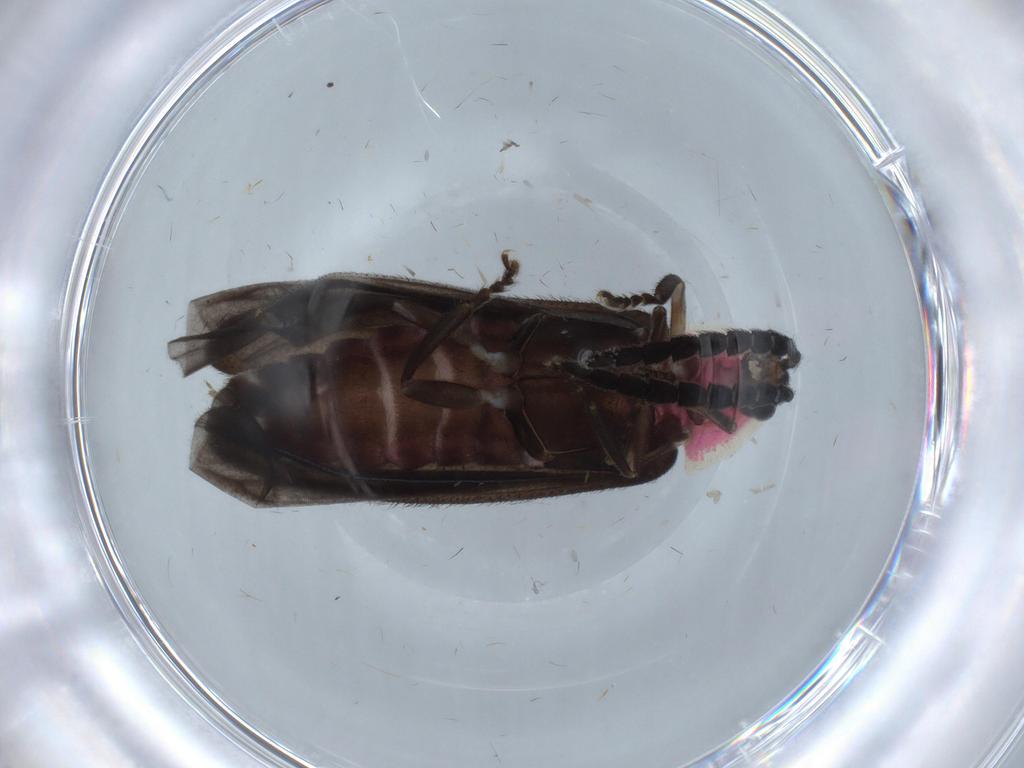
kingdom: Animalia
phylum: Arthropoda
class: Insecta
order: Coleoptera
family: Lampyridae
